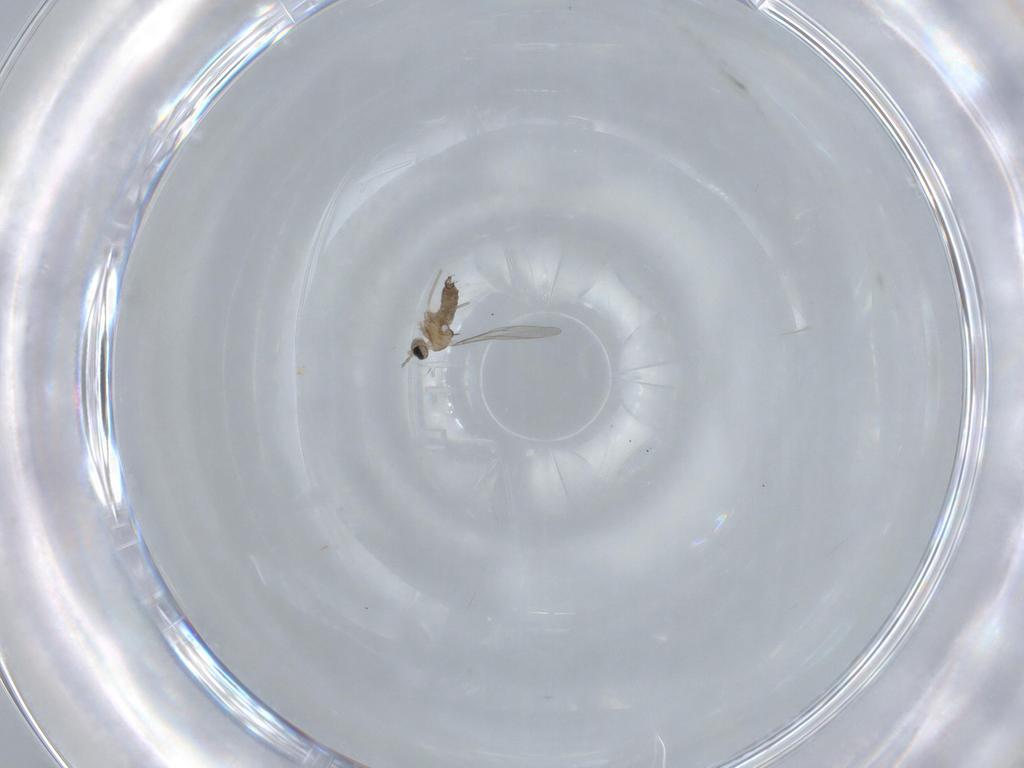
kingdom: Animalia
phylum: Arthropoda
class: Insecta
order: Diptera
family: Cecidomyiidae
